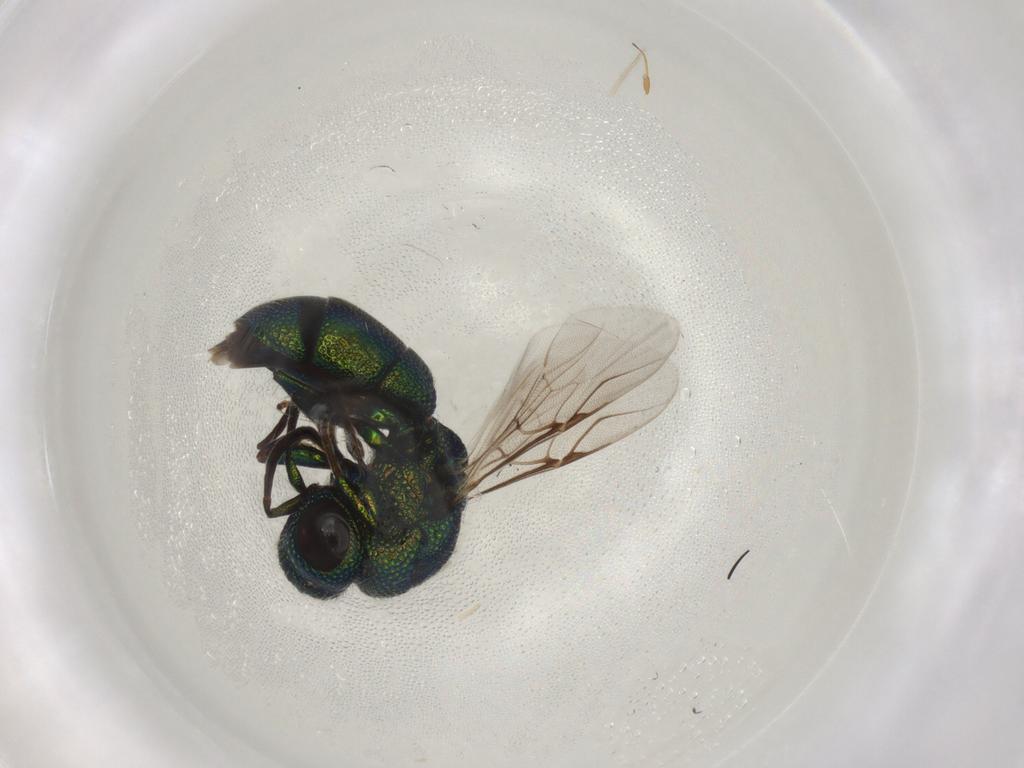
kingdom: Animalia
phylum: Arthropoda
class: Insecta
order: Hymenoptera
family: Chrysididae
